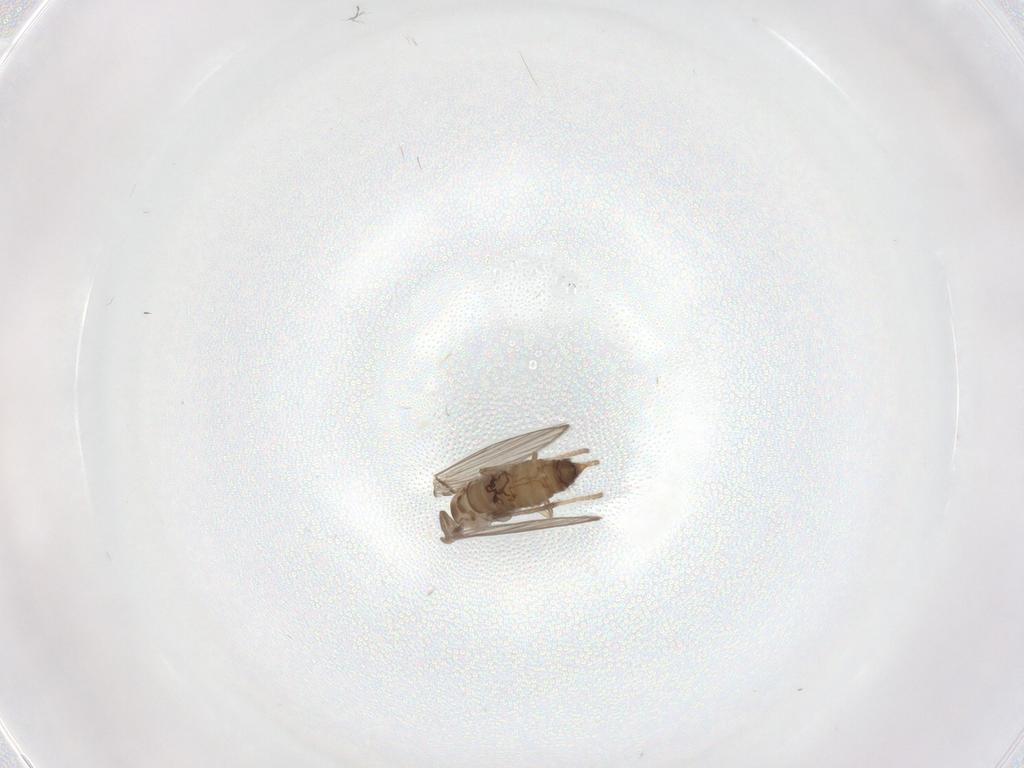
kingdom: Animalia
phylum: Arthropoda
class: Insecta
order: Diptera
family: Psychodidae
